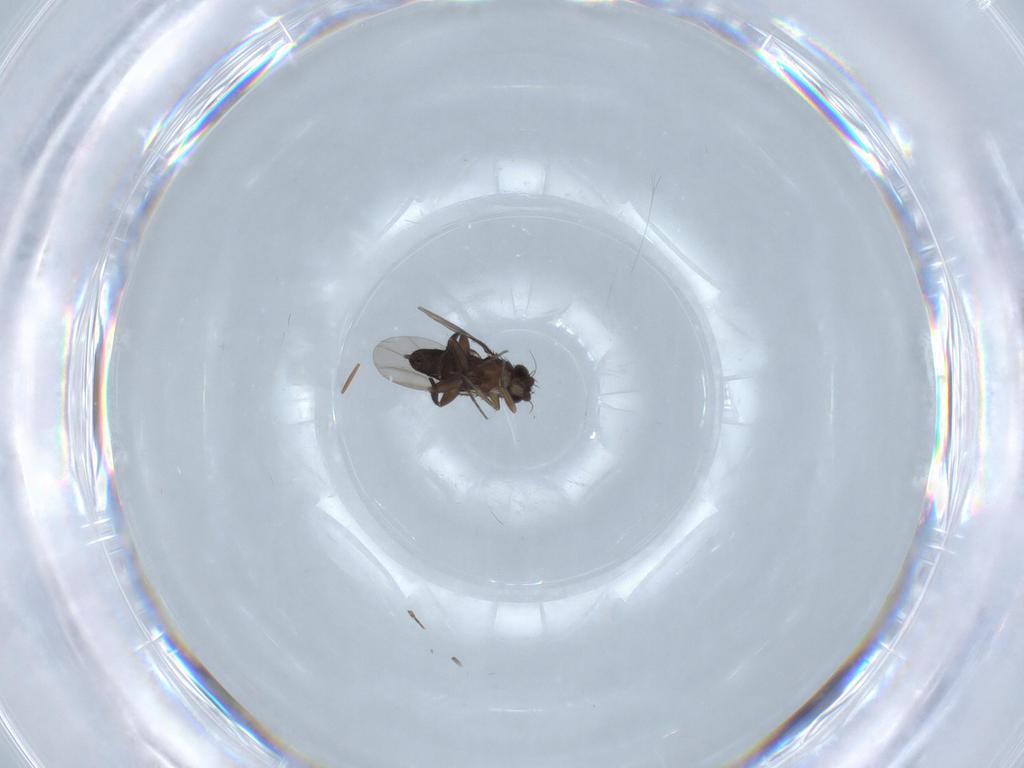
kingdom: Animalia
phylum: Arthropoda
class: Insecta
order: Diptera
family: Phoridae
